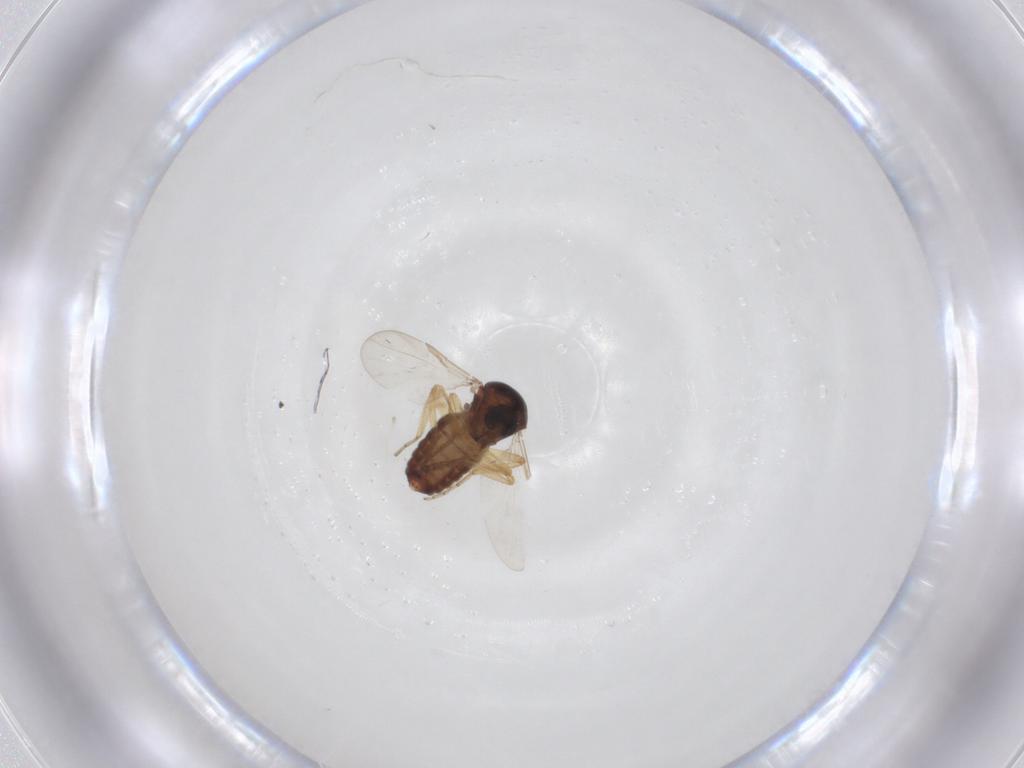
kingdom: Animalia
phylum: Arthropoda
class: Insecta
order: Diptera
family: Ceratopogonidae
